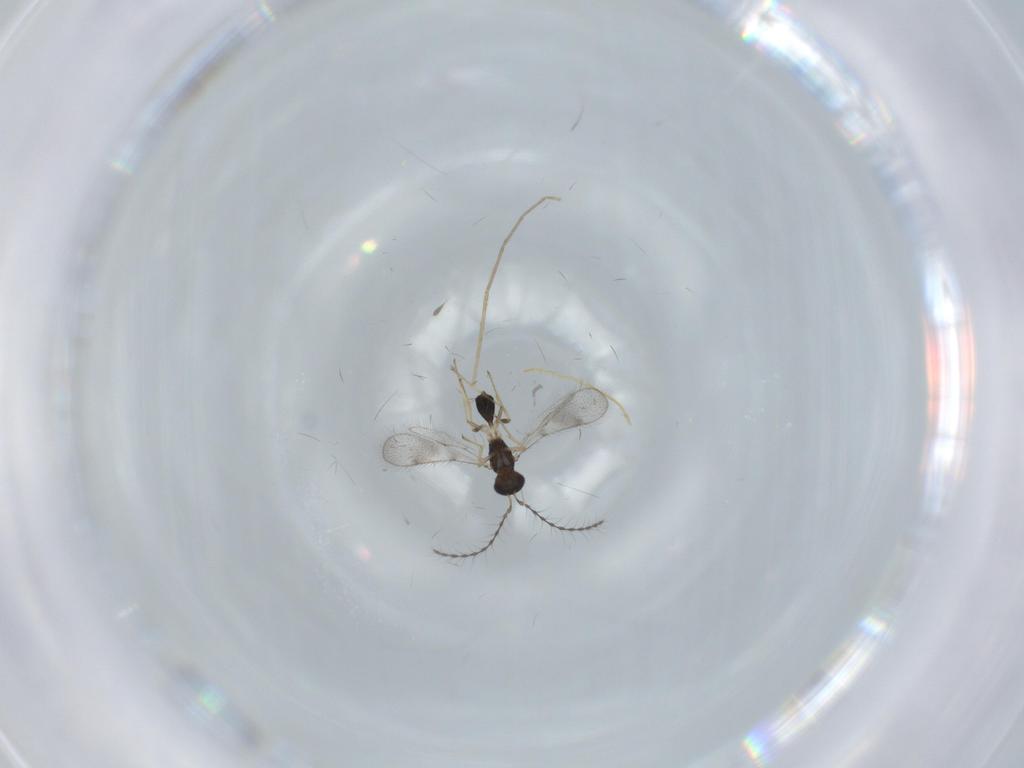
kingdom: Animalia
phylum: Arthropoda
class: Insecta
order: Hymenoptera
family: Diparidae
